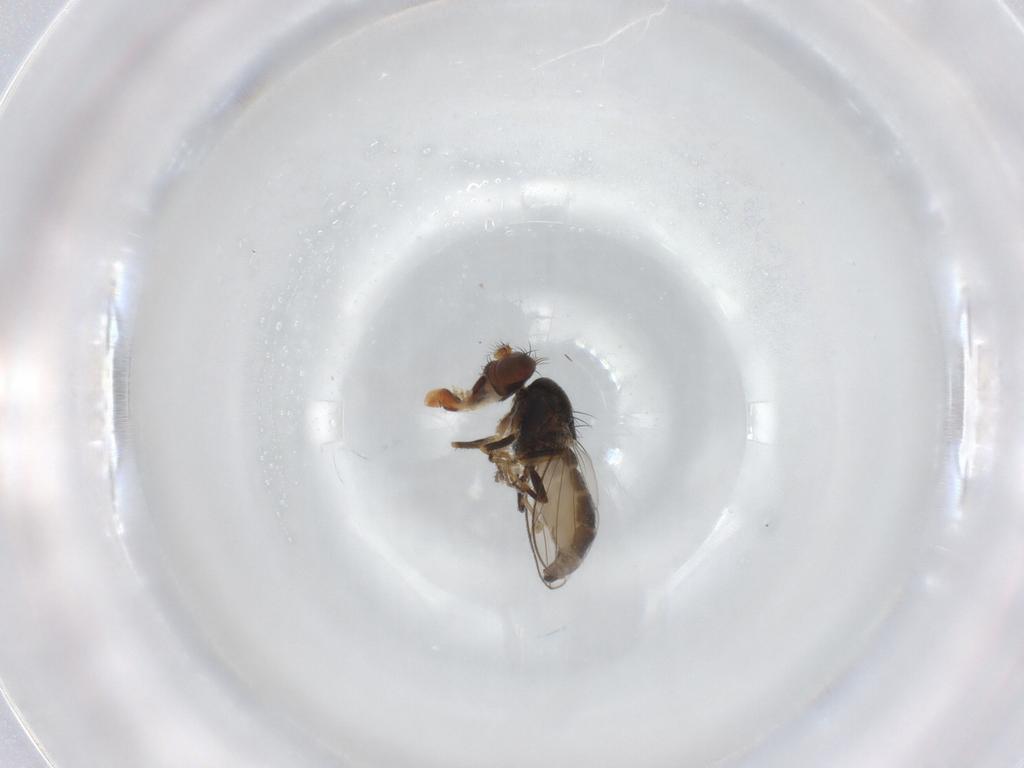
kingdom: Animalia
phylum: Arthropoda
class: Insecta
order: Diptera
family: Ephydridae
